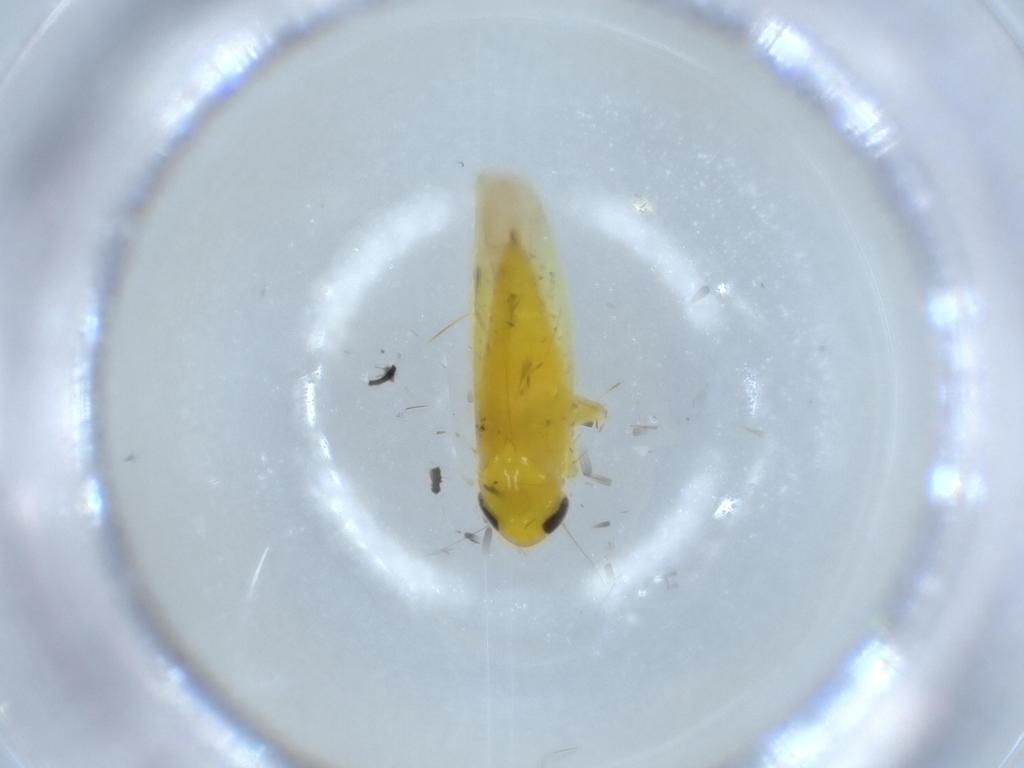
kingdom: Animalia
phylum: Arthropoda
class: Insecta
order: Hemiptera
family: Cicadellidae
